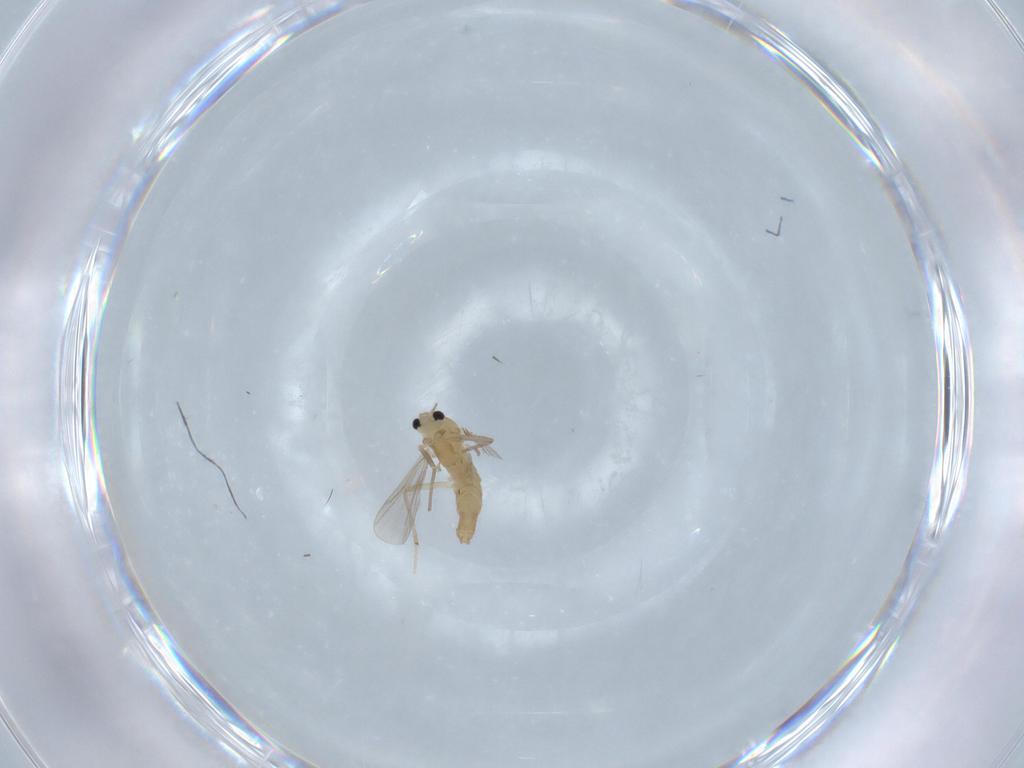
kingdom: Animalia
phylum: Arthropoda
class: Insecta
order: Diptera
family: Chironomidae
